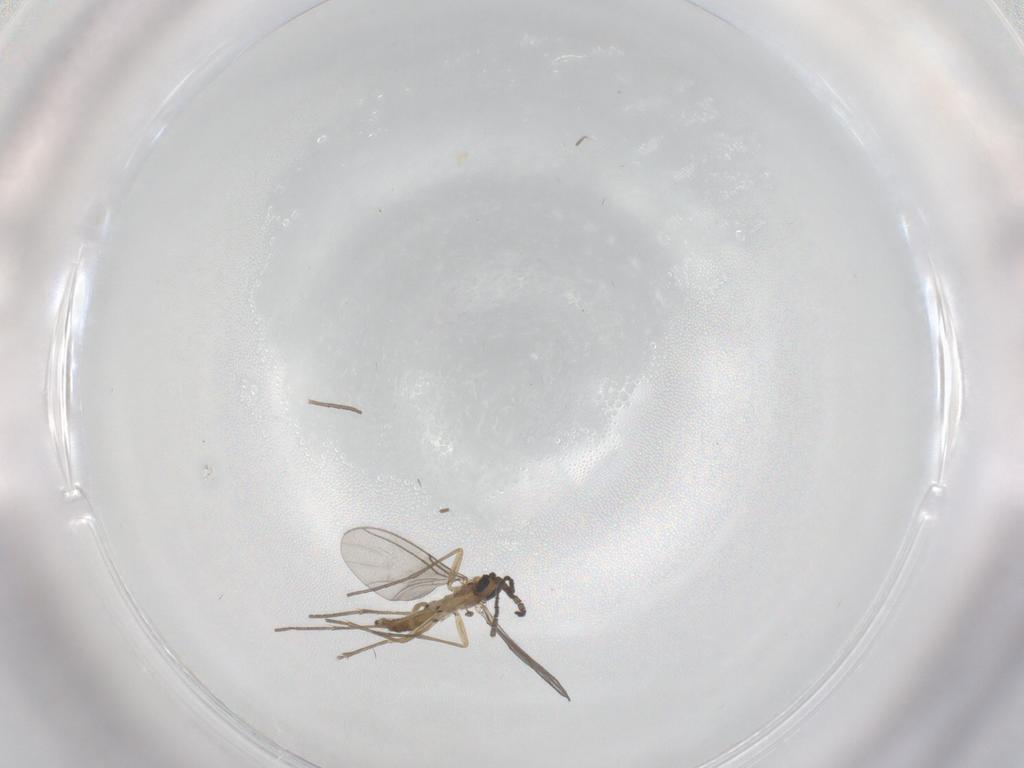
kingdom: Animalia
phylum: Arthropoda
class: Insecta
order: Diptera
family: Sciaridae
